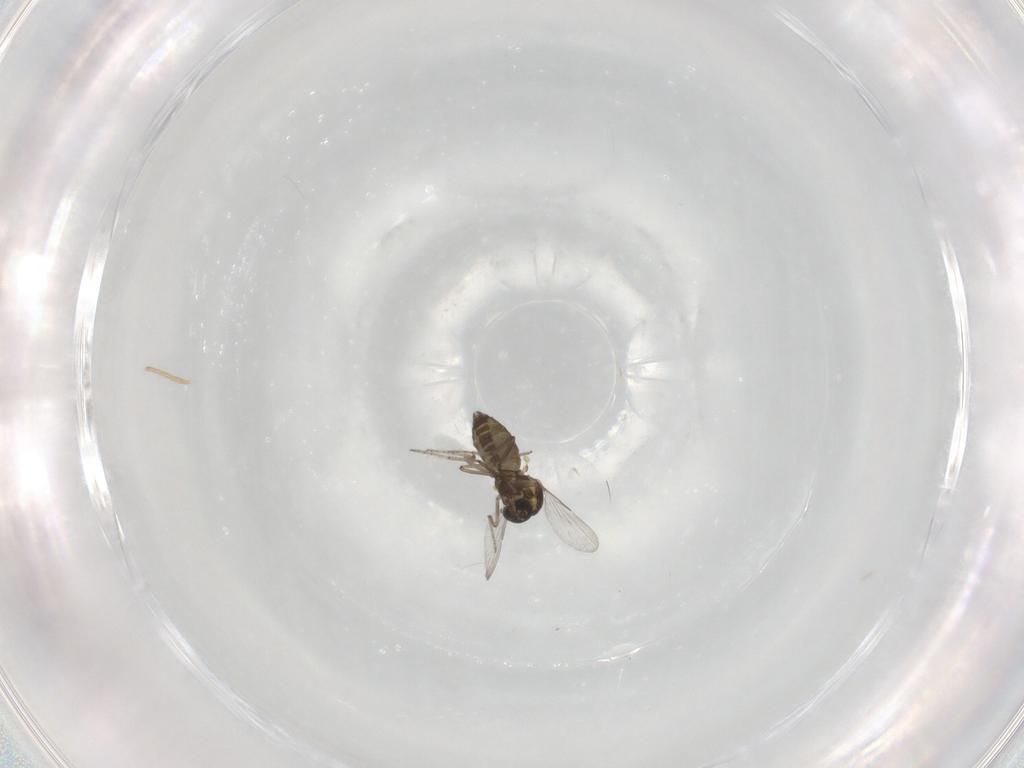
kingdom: Animalia
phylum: Arthropoda
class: Insecta
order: Diptera
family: Ceratopogonidae
